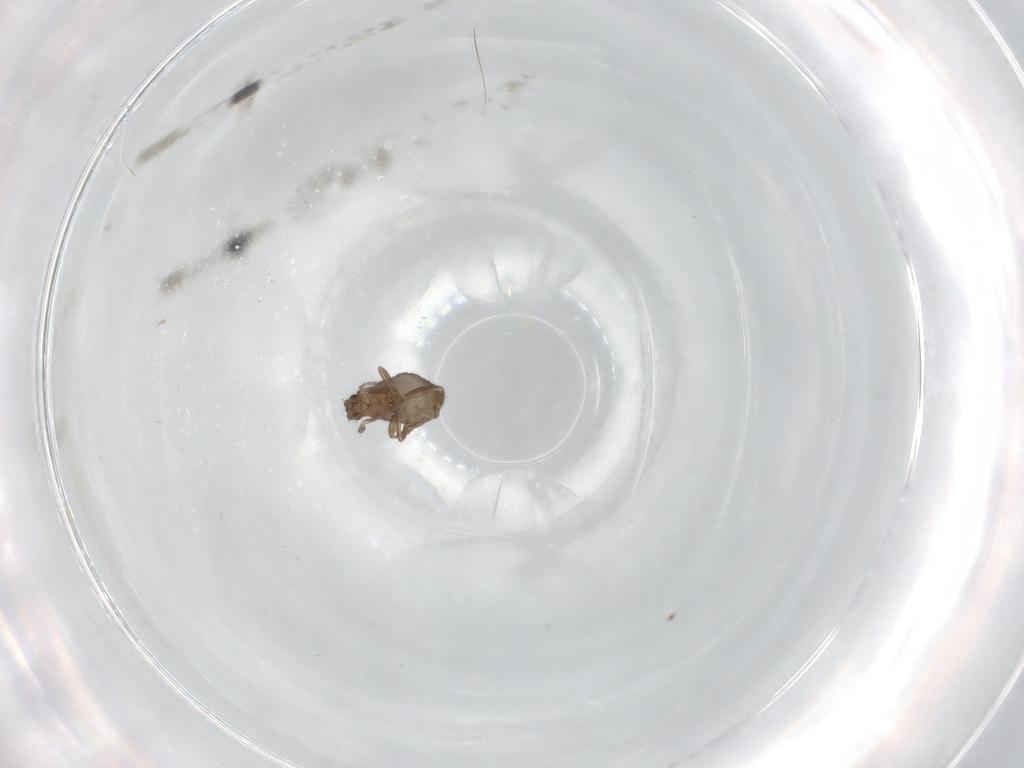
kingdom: Animalia
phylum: Arthropoda
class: Insecta
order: Diptera
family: Phoridae
